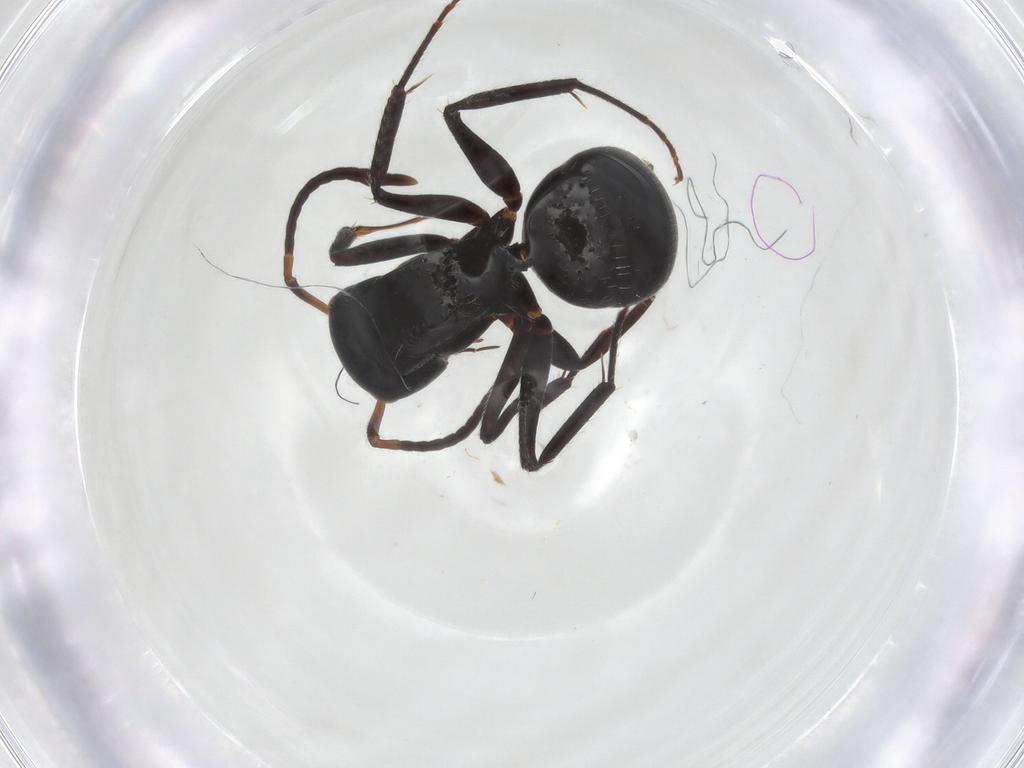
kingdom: Animalia
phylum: Arthropoda
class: Insecta
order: Hymenoptera
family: Formicidae
